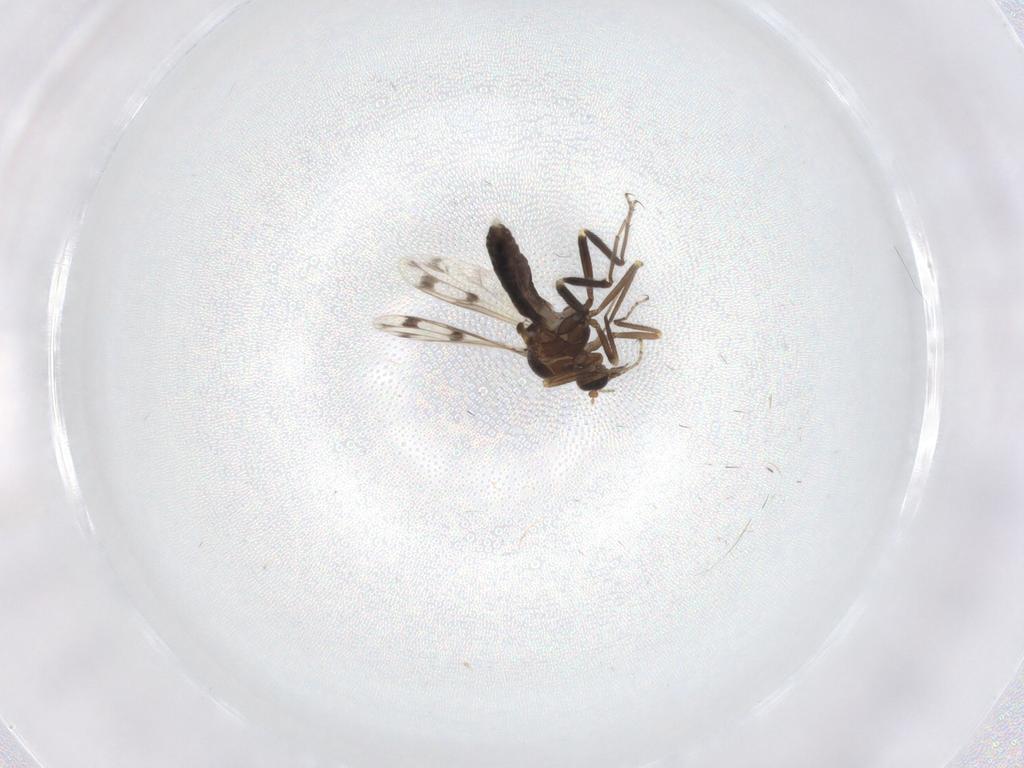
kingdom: Animalia
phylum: Arthropoda
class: Insecta
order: Diptera
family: Ceratopogonidae
